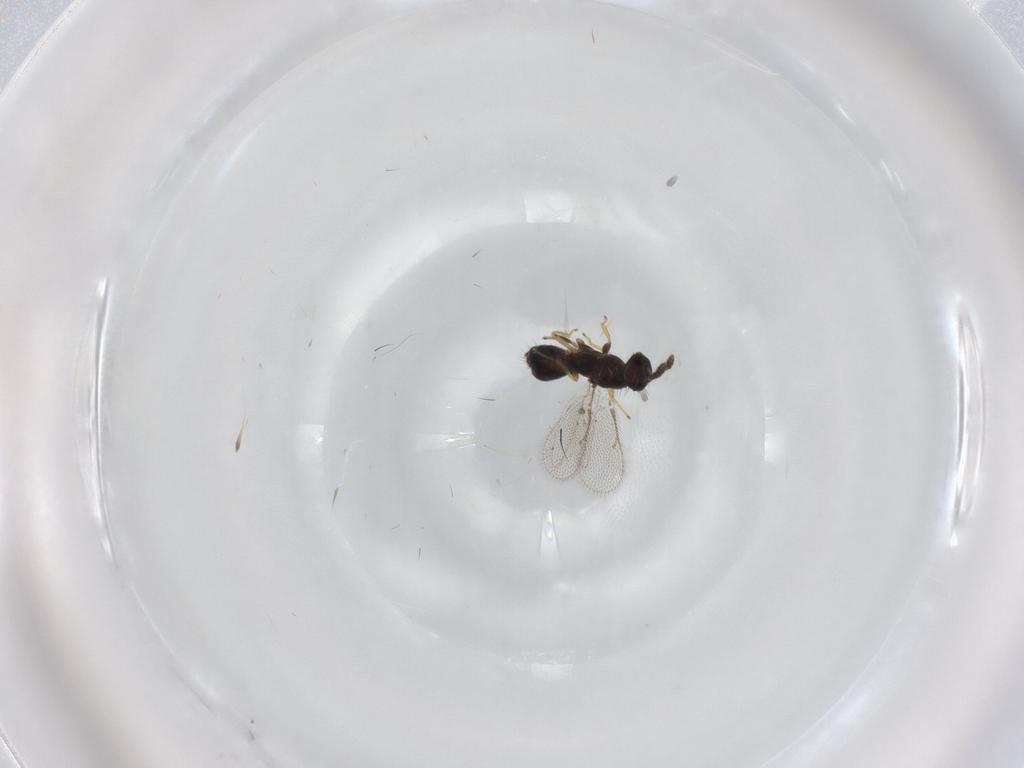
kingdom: Animalia
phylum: Arthropoda
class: Insecta
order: Hymenoptera
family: Eulophidae
